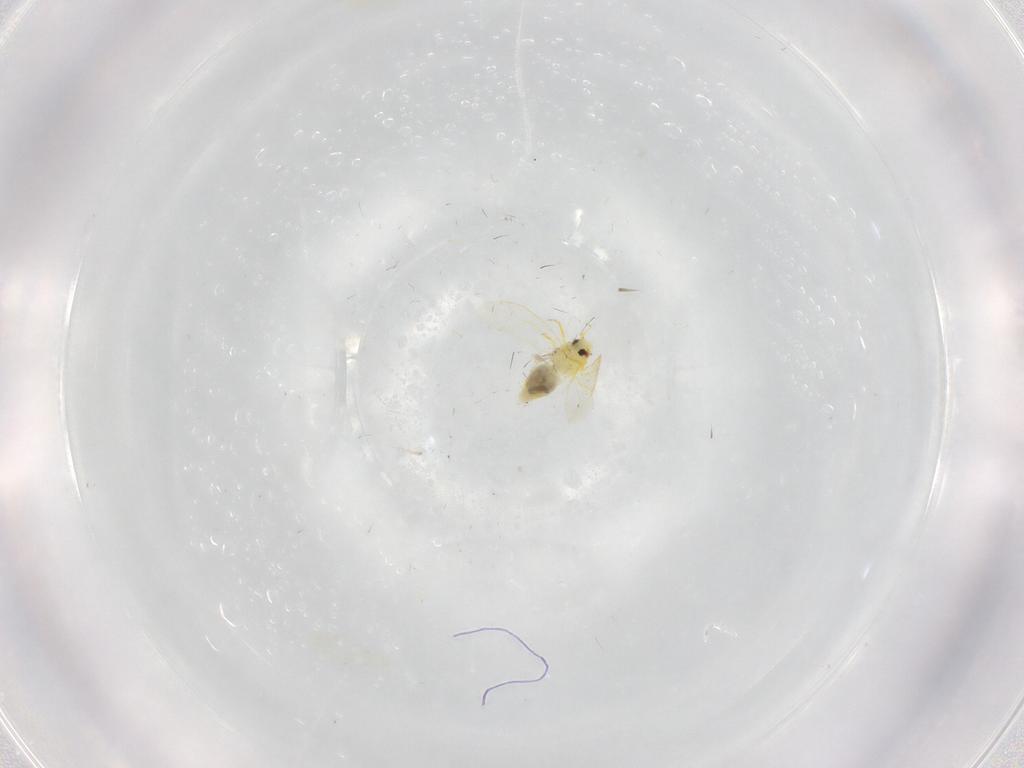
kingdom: Animalia
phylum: Arthropoda
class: Insecta
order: Hemiptera
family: Aleyrodidae
